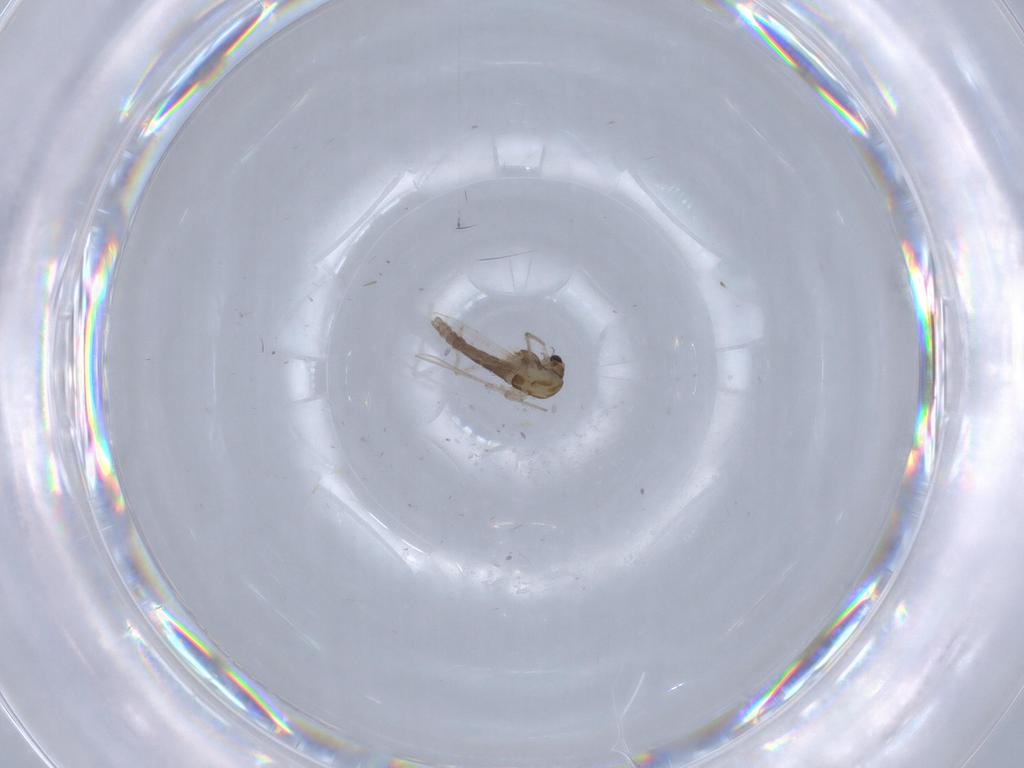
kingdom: Animalia
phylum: Arthropoda
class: Insecta
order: Diptera
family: Chironomidae
